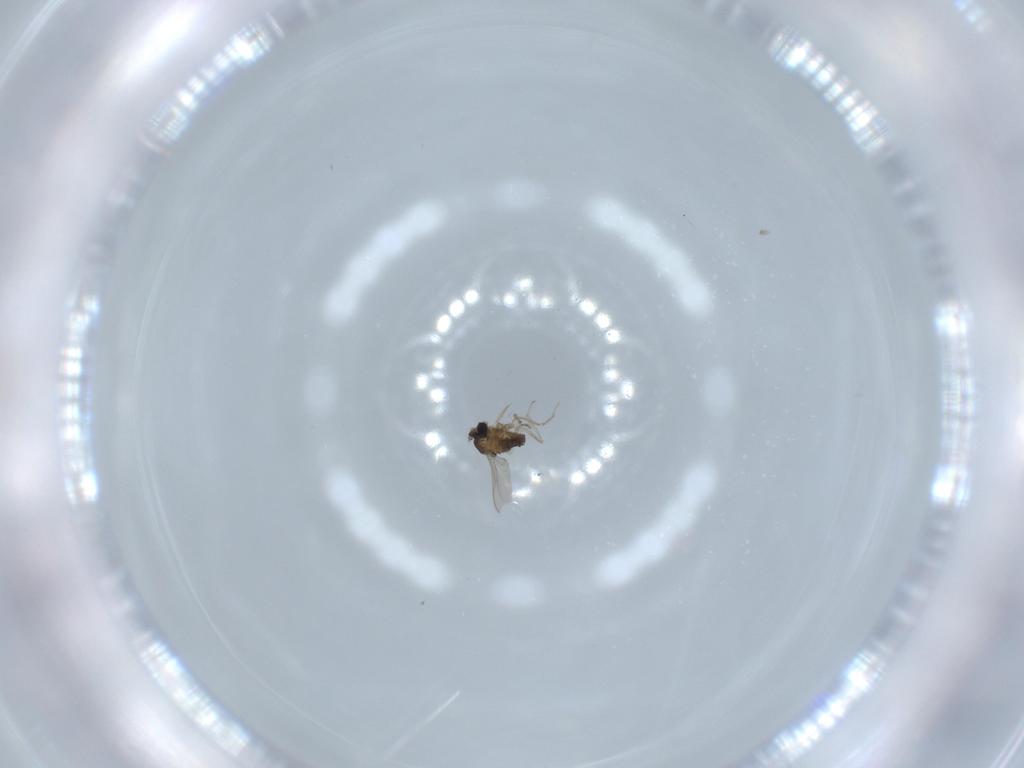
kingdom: Animalia
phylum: Arthropoda
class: Insecta
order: Diptera
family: Cecidomyiidae
